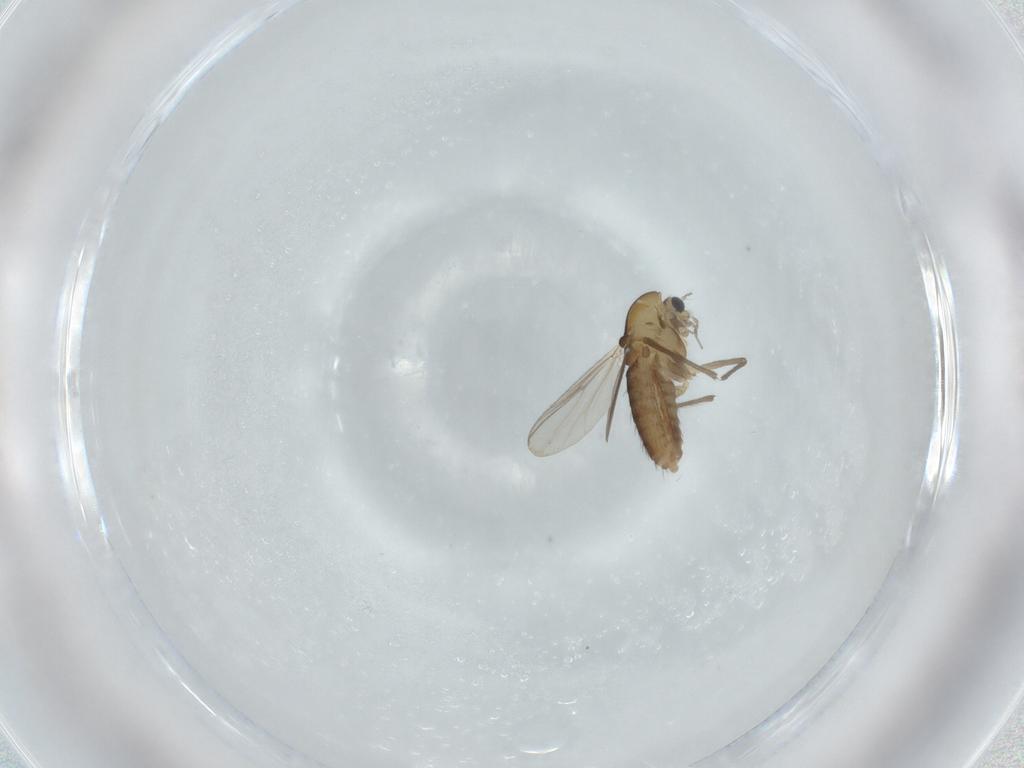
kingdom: Animalia
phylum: Arthropoda
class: Insecta
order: Diptera
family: Chironomidae
